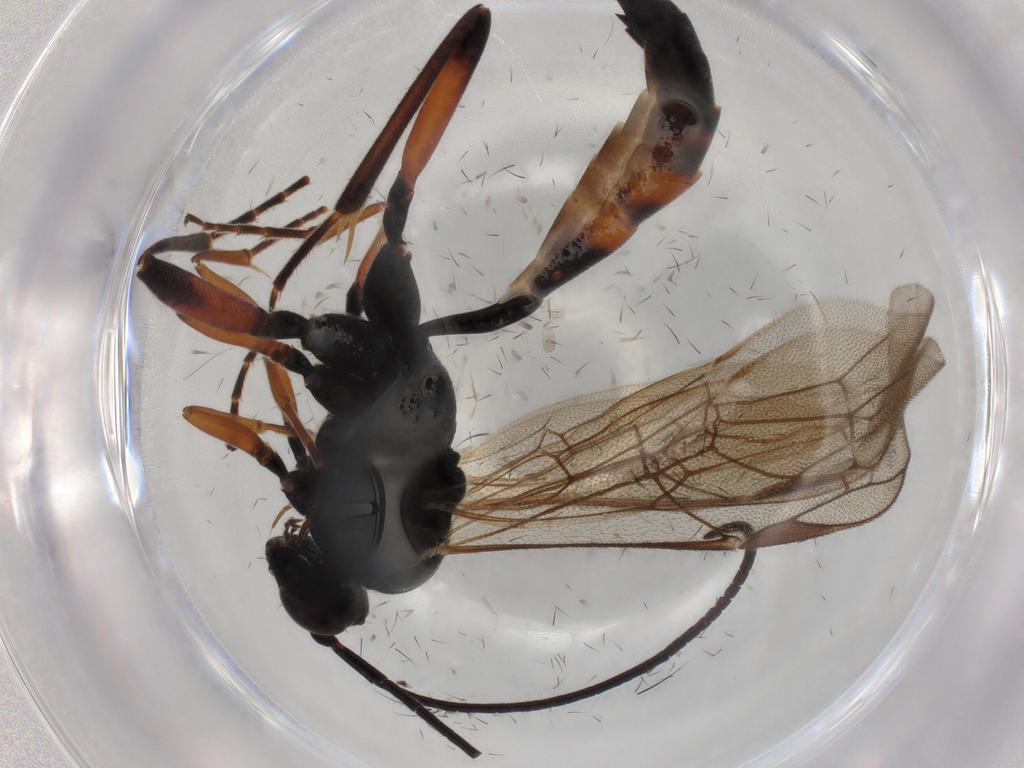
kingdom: Animalia
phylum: Arthropoda
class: Insecta
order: Hymenoptera
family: Ichneumonidae
